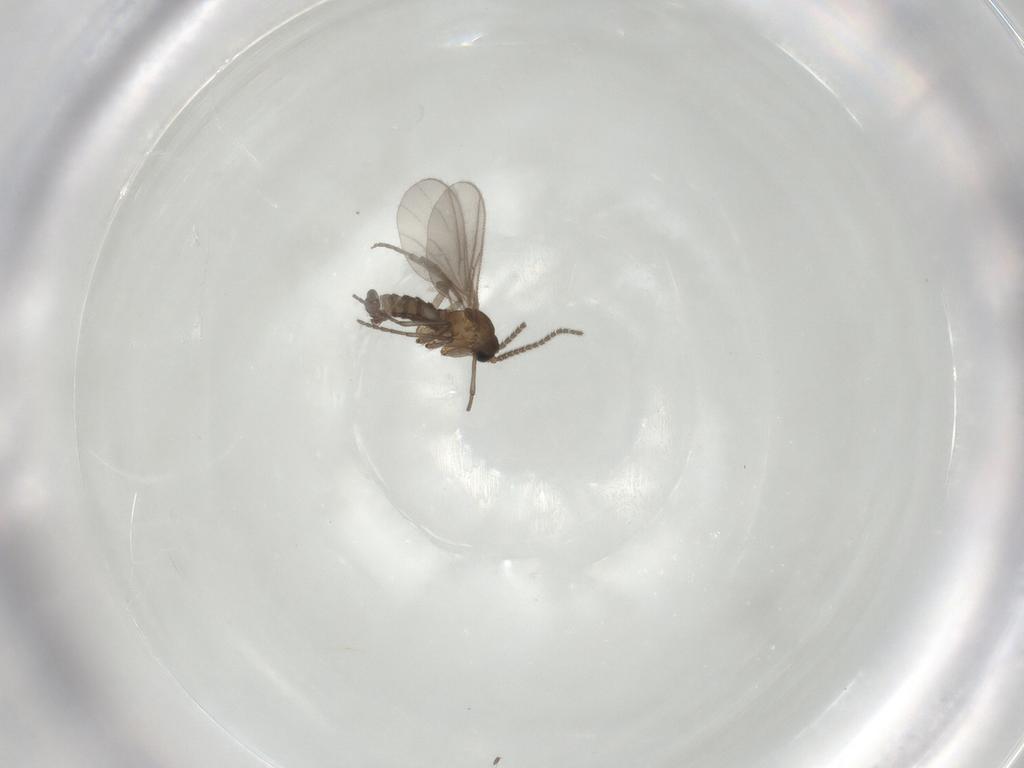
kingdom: Animalia
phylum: Arthropoda
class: Insecta
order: Diptera
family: Sciaridae
